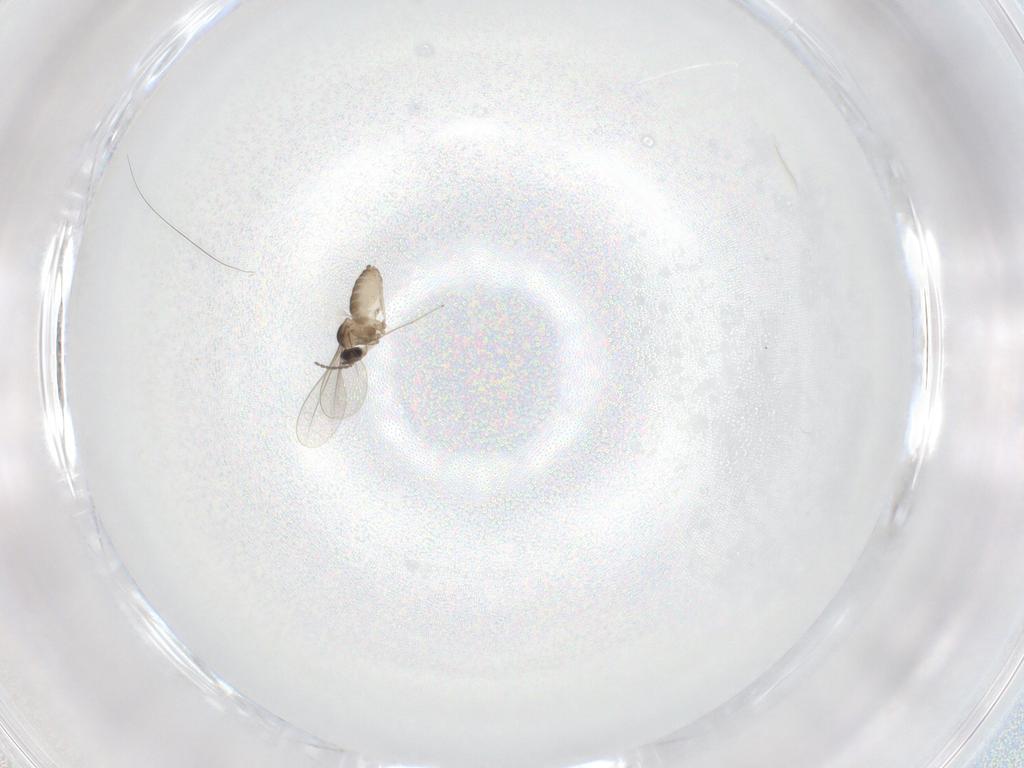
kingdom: Animalia
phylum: Arthropoda
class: Insecta
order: Diptera
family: Cecidomyiidae
